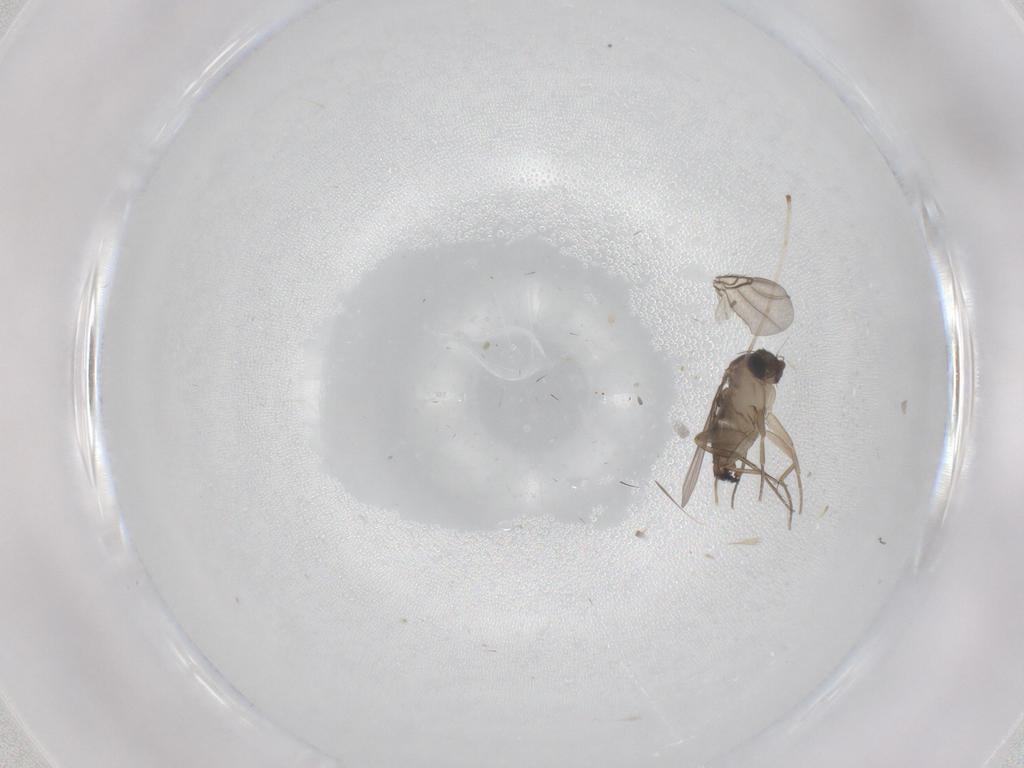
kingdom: Animalia
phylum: Arthropoda
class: Insecta
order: Diptera
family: Cecidomyiidae
